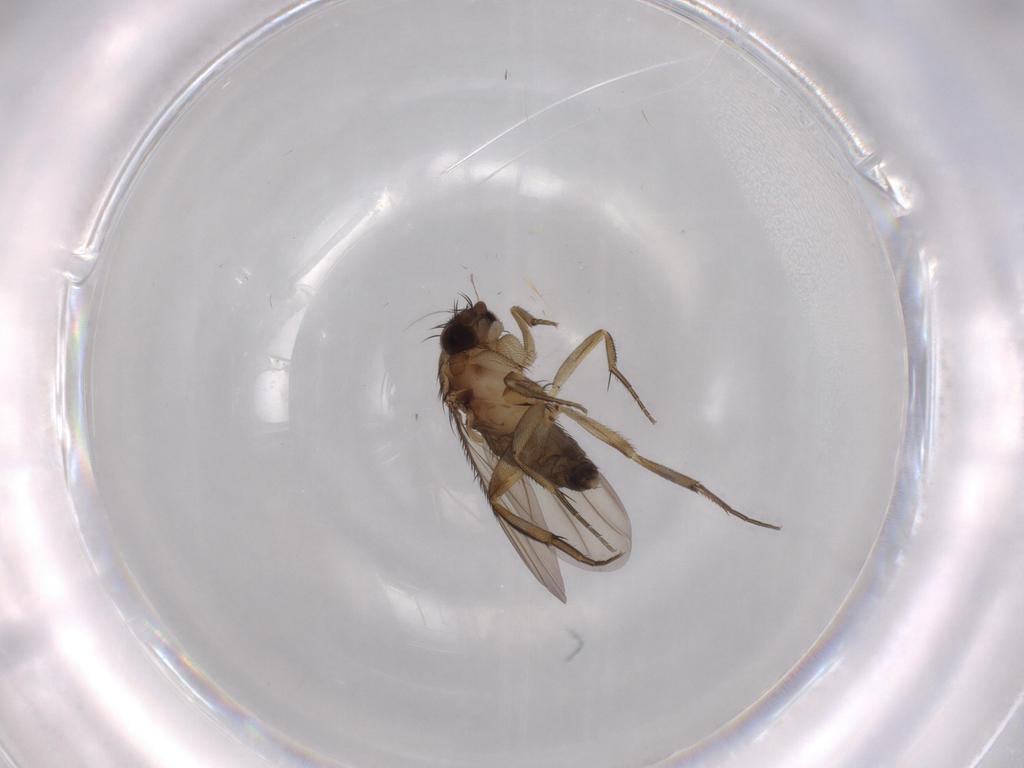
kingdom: Animalia
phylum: Arthropoda
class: Insecta
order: Diptera
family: Phoridae
